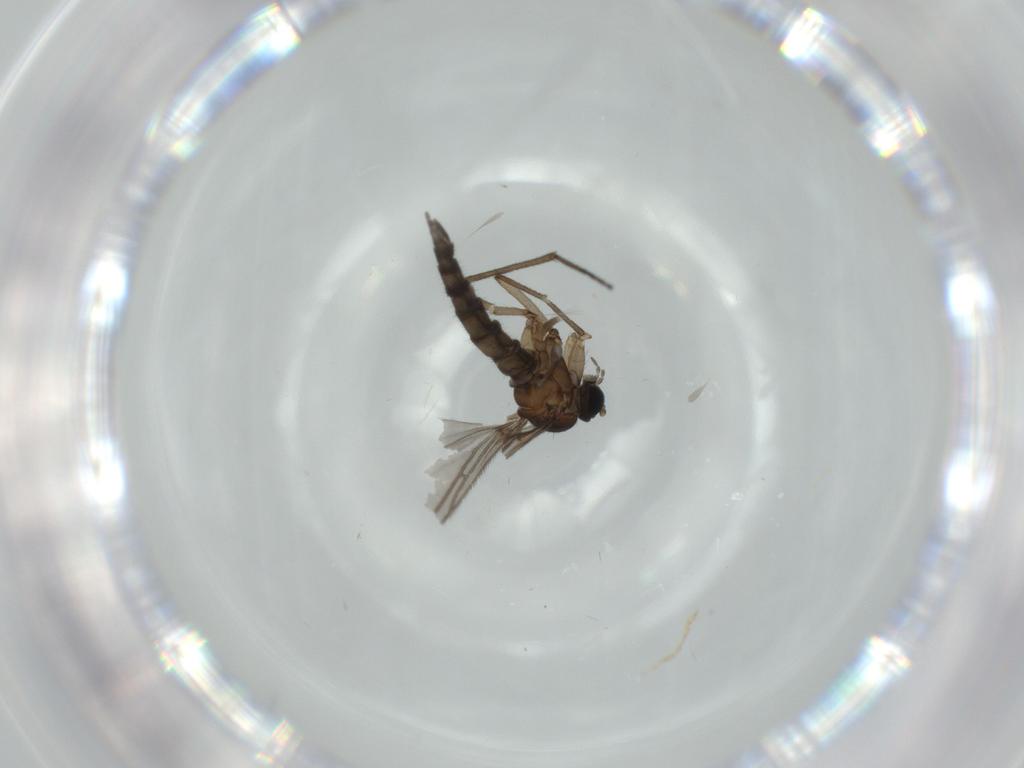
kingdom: Animalia
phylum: Arthropoda
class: Insecta
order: Diptera
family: Sciaridae
